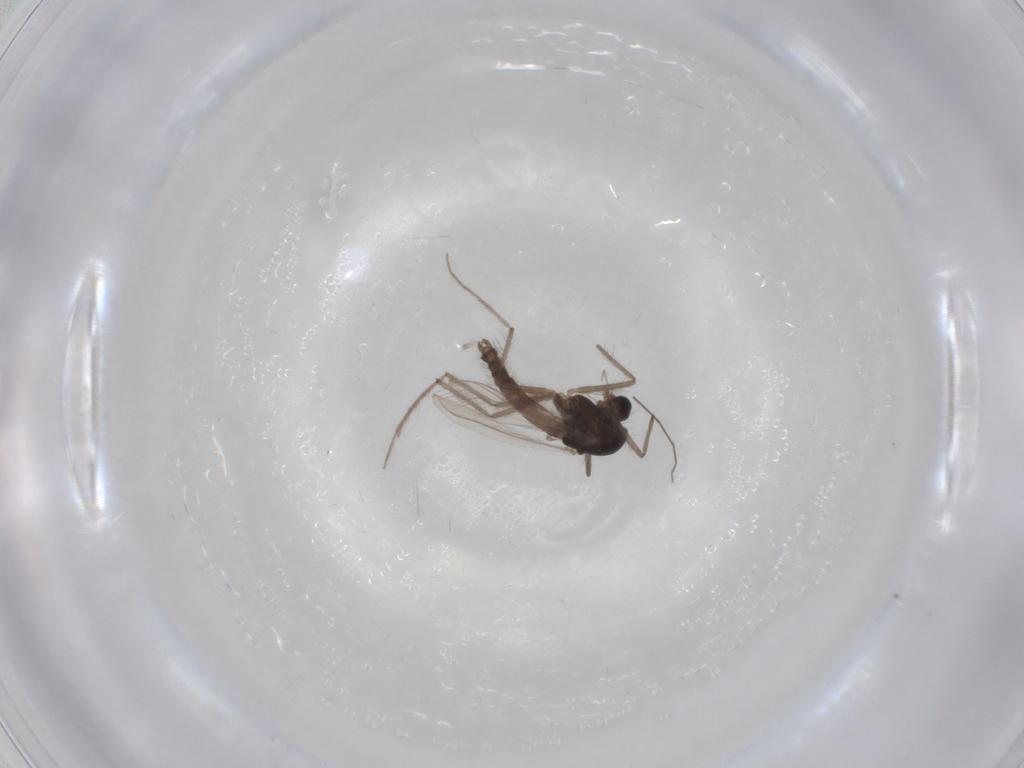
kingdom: Animalia
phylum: Arthropoda
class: Insecta
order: Diptera
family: Chironomidae
